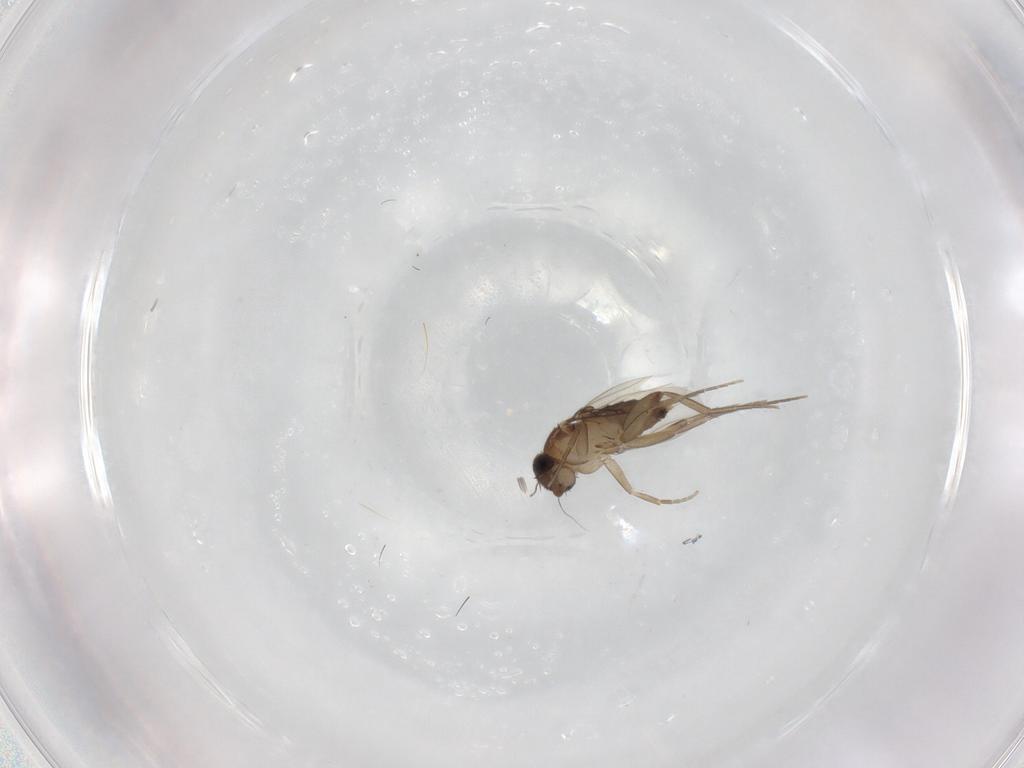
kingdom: Animalia
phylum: Arthropoda
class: Insecta
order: Diptera
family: Phoridae
